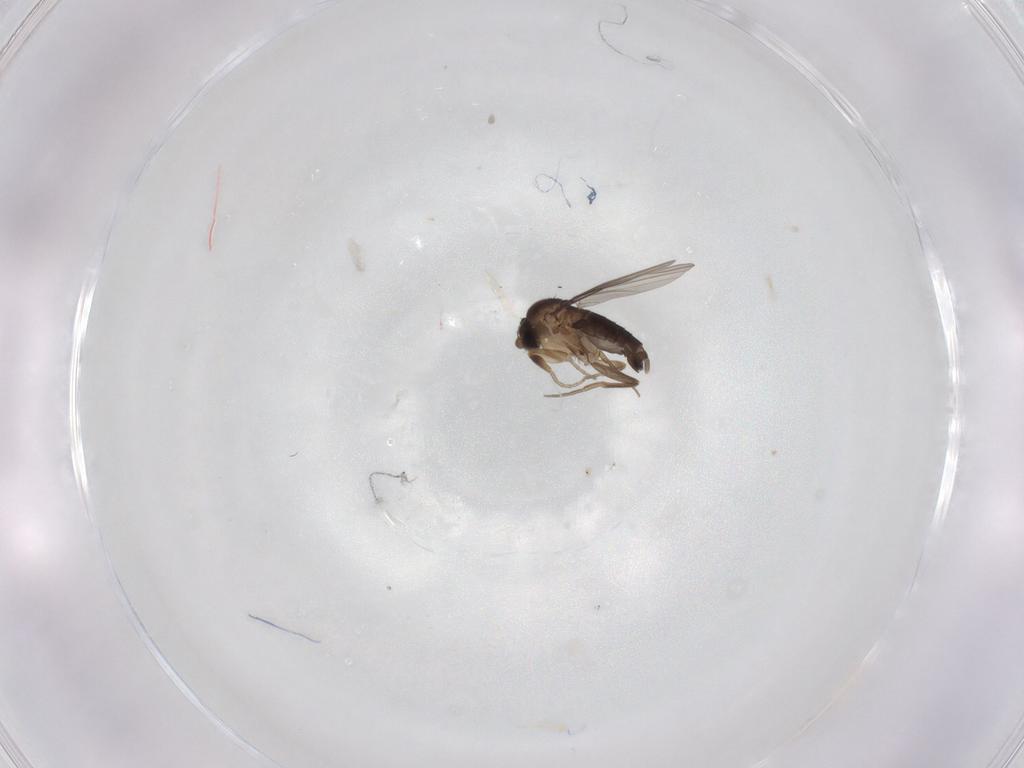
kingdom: Animalia
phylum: Arthropoda
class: Insecta
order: Diptera
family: Phoridae
